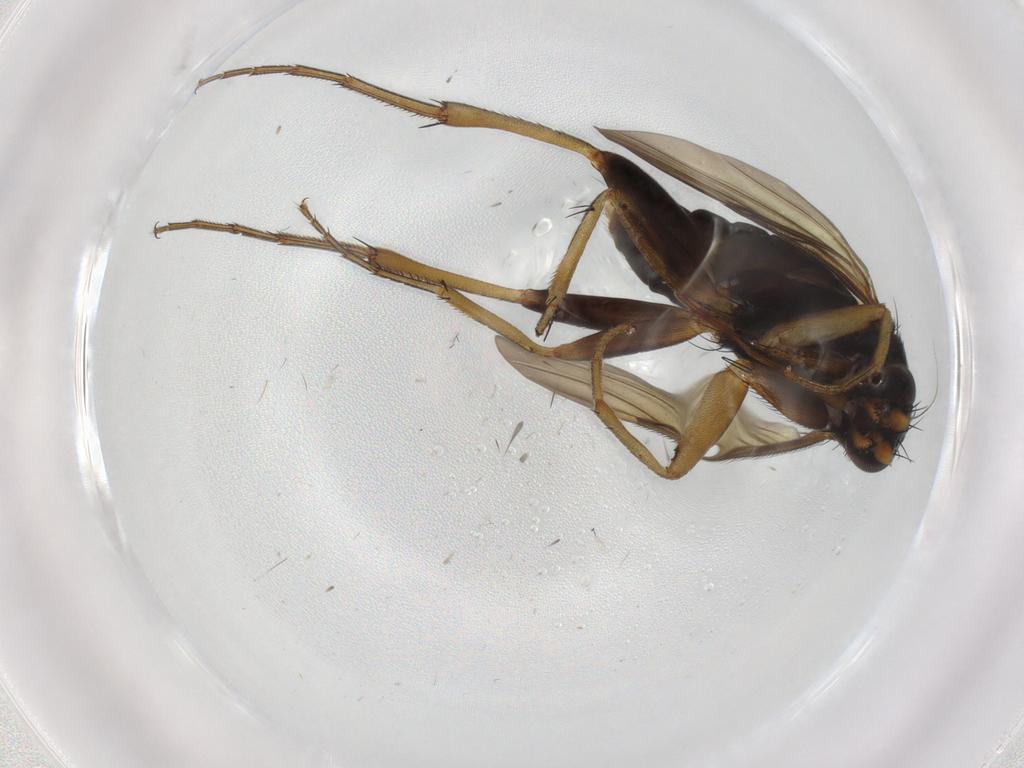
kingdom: Animalia
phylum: Arthropoda
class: Insecta
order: Diptera
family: Phoridae
